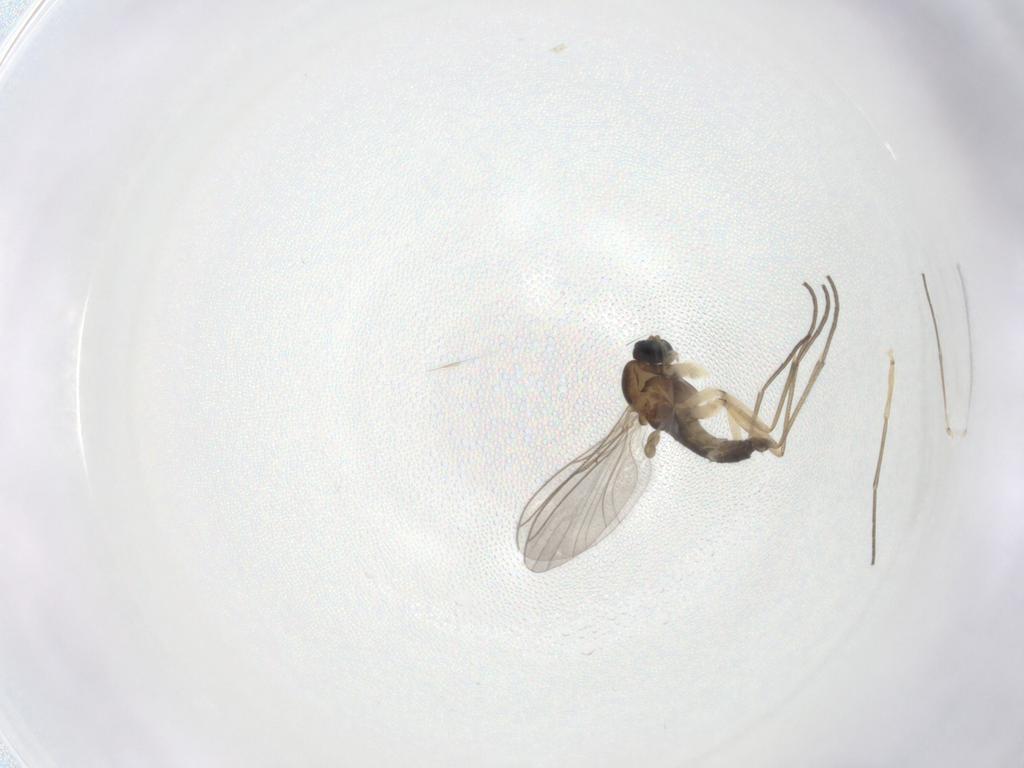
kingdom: Animalia
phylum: Arthropoda
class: Insecta
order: Diptera
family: Sciaridae
